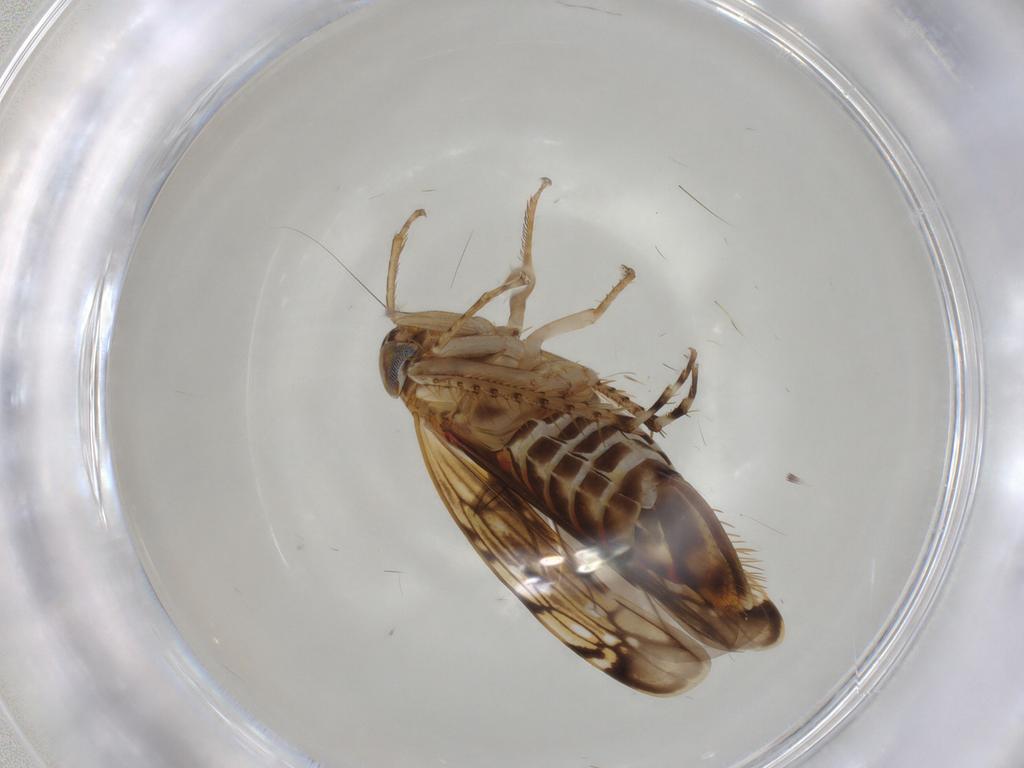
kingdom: Animalia
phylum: Arthropoda
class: Insecta
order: Hemiptera
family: Cicadellidae
